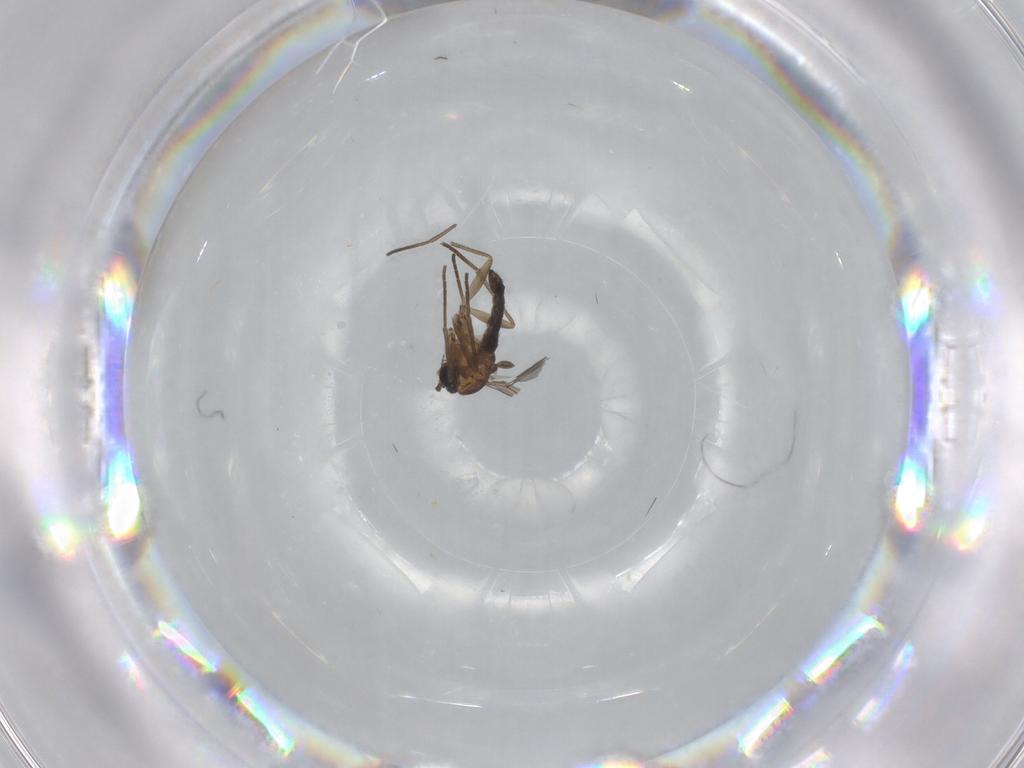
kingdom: Animalia
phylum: Arthropoda
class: Insecta
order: Diptera
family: Sciaridae
